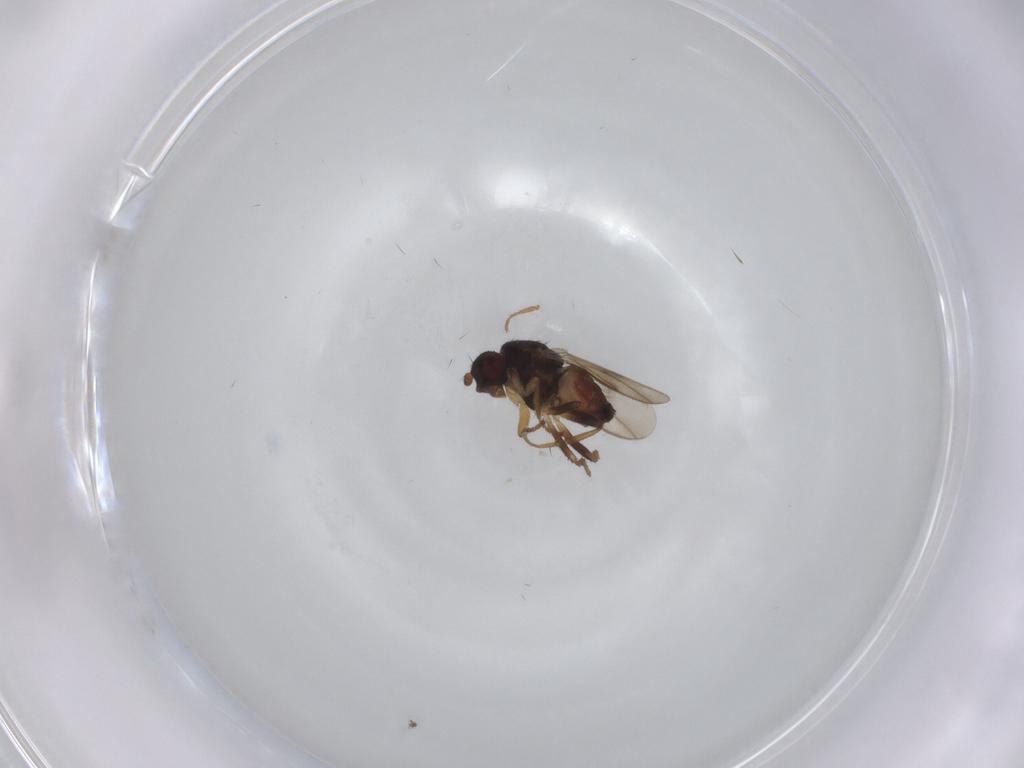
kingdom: Animalia
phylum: Arthropoda
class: Insecta
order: Diptera
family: Sphaeroceridae
